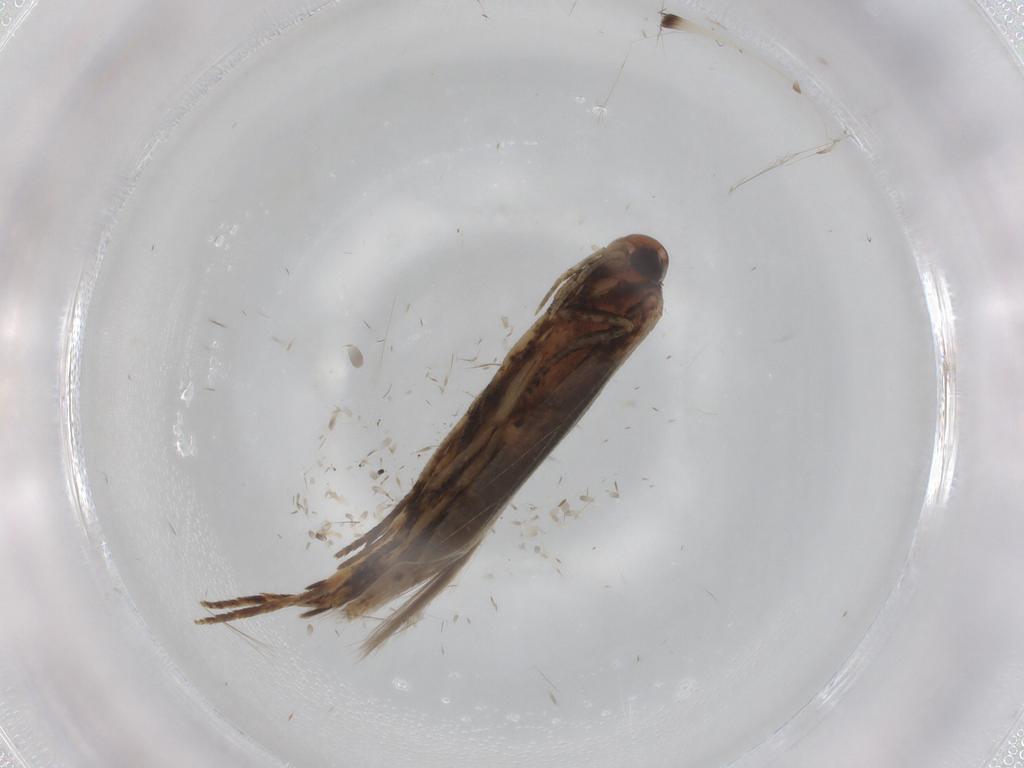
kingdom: Animalia
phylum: Arthropoda
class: Insecta
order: Lepidoptera
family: Cosmopterigidae
